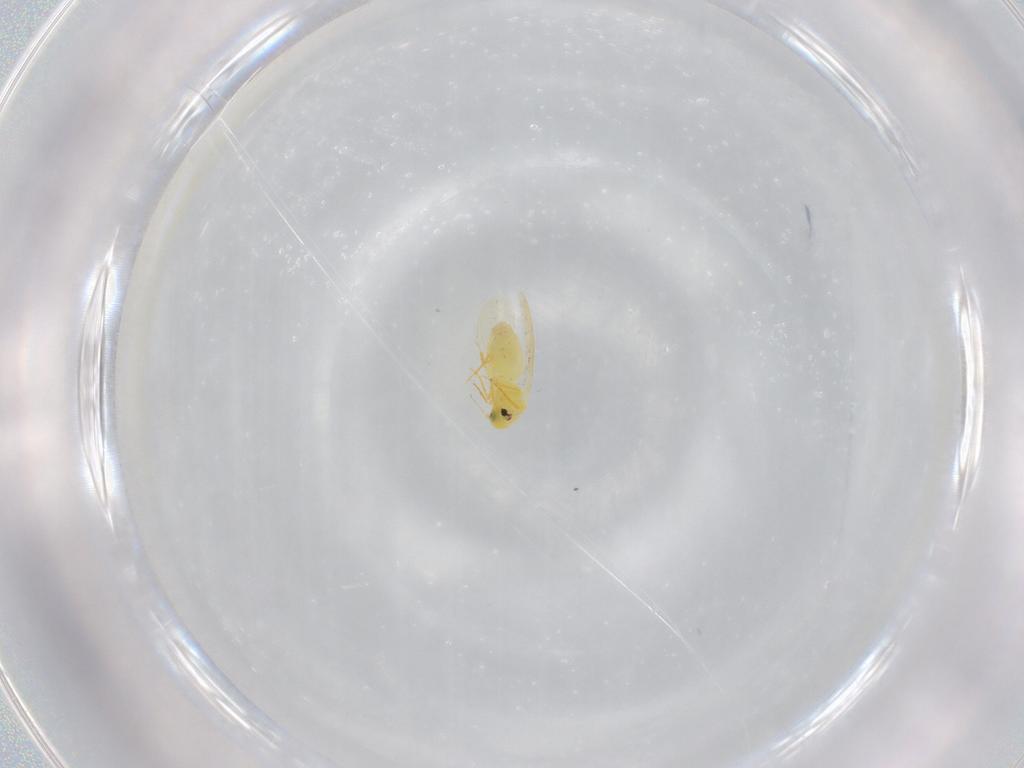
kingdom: Animalia
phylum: Arthropoda
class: Insecta
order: Hemiptera
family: Aleyrodidae
